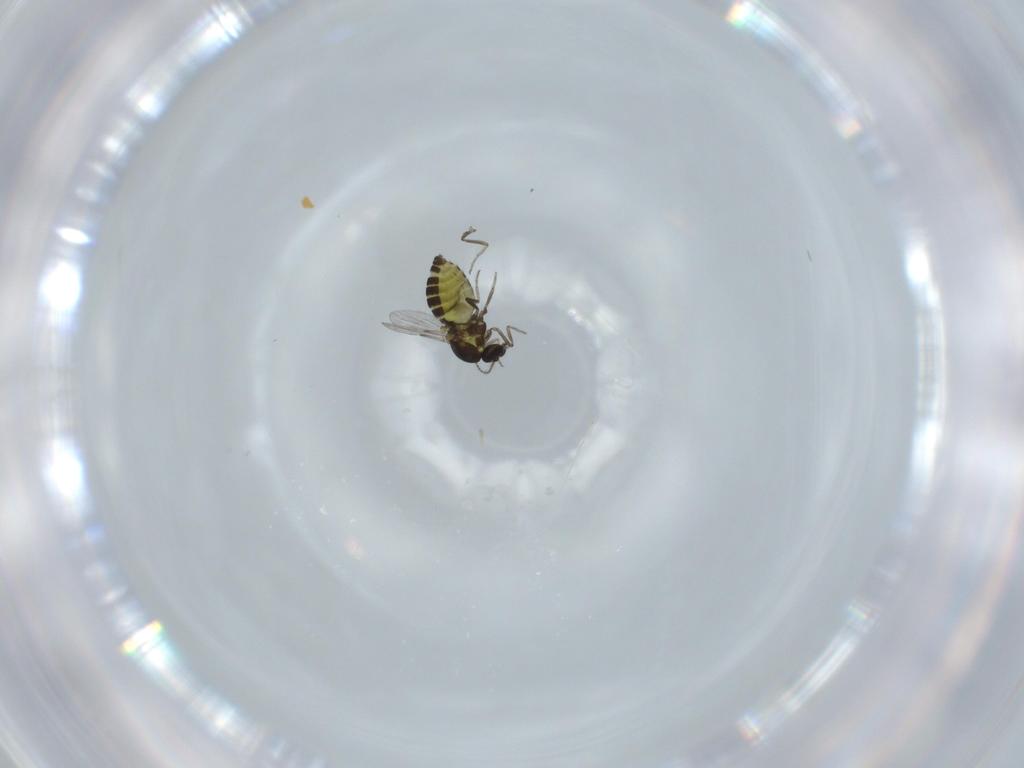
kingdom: Animalia
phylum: Arthropoda
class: Insecta
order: Diptera
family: Ceratopogonidae
